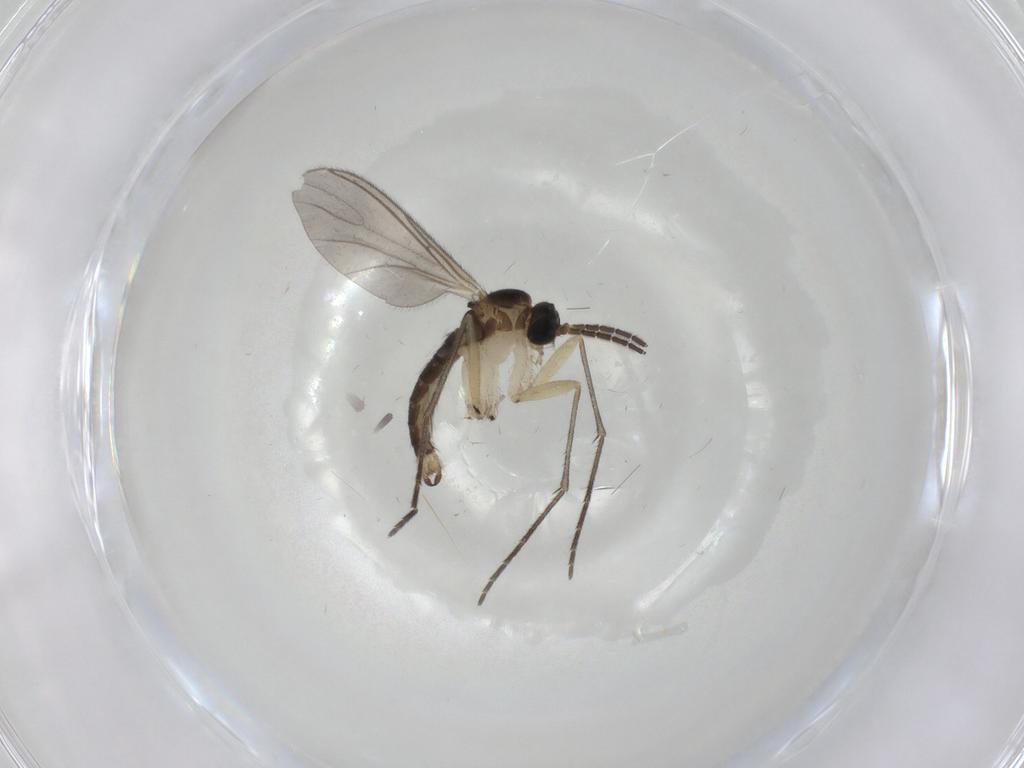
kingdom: Animalia
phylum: Arthropoda
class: Insecta
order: Diptera
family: Sciaridae
